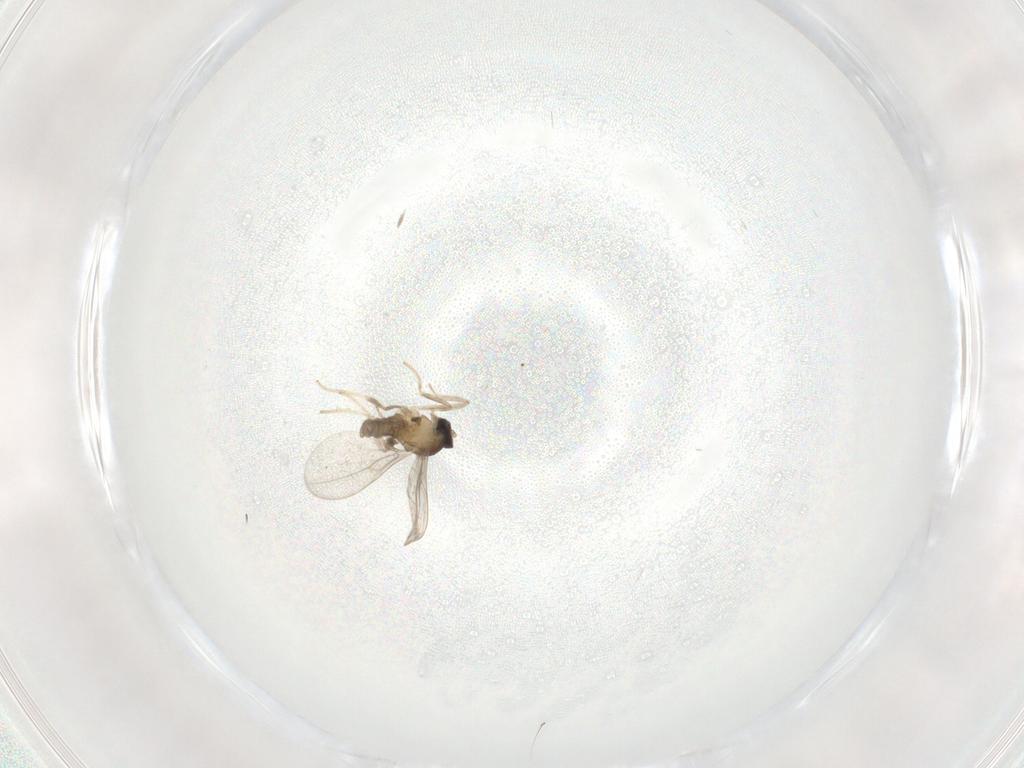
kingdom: Animalia
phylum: Arthropoda
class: Insecta
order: Diptera
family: Cecidomyiidae
